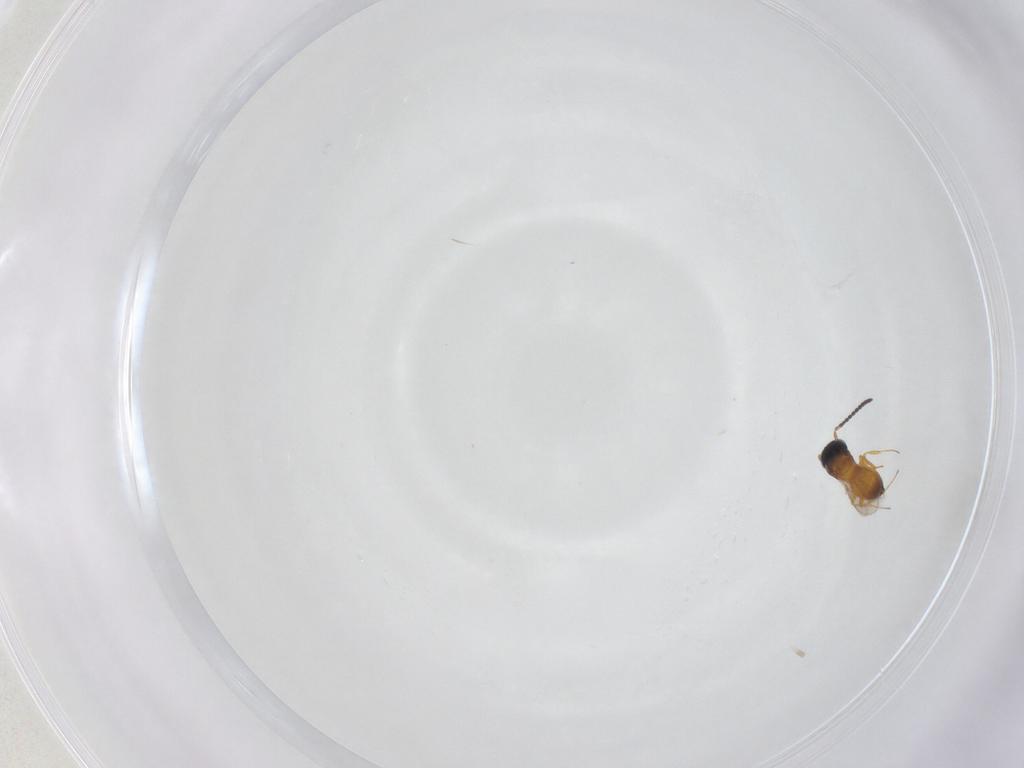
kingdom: Animalia
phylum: Arthropoda
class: Insecta
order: Hymenoptera
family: Scelionidae
